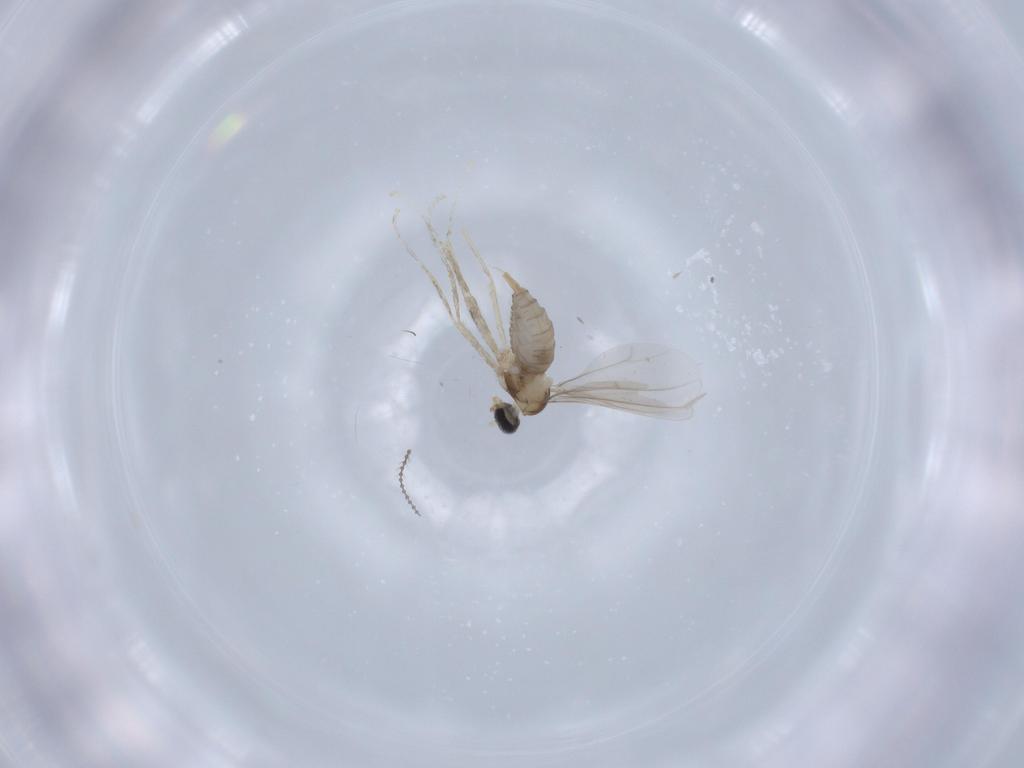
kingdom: Animalia
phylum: Arthropoda
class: Insecta
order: Diptera
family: Cecidomyiidae
